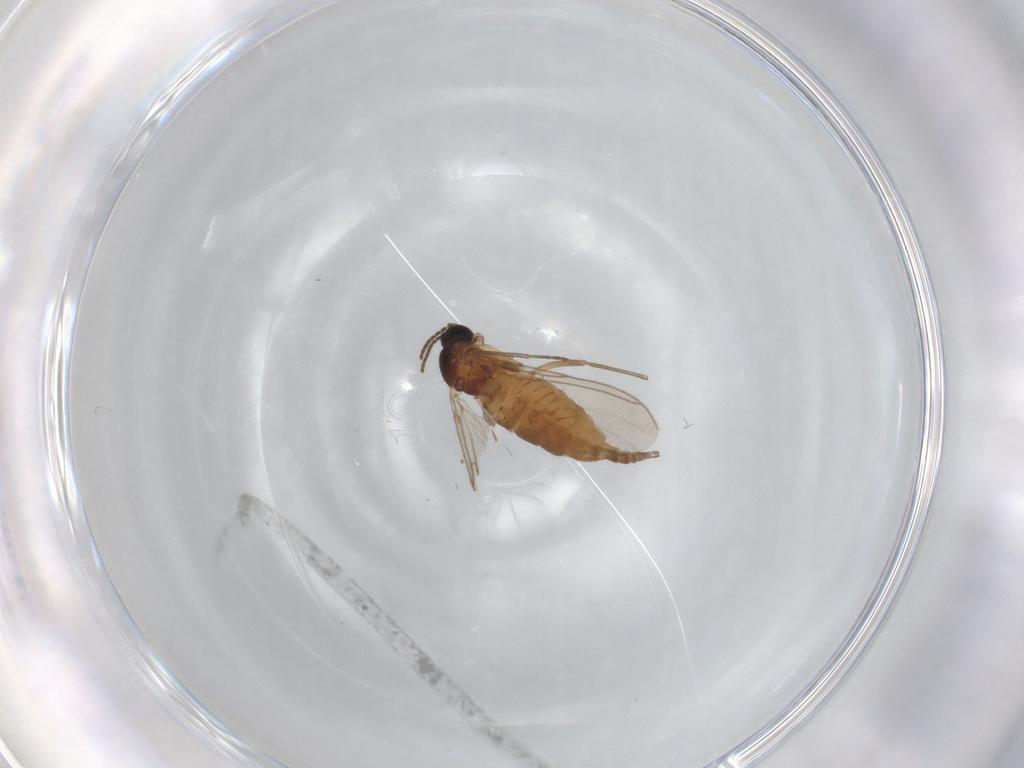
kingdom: Animalia
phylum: Arthropoda
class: Insecta
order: Diptera
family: Sciaridae
